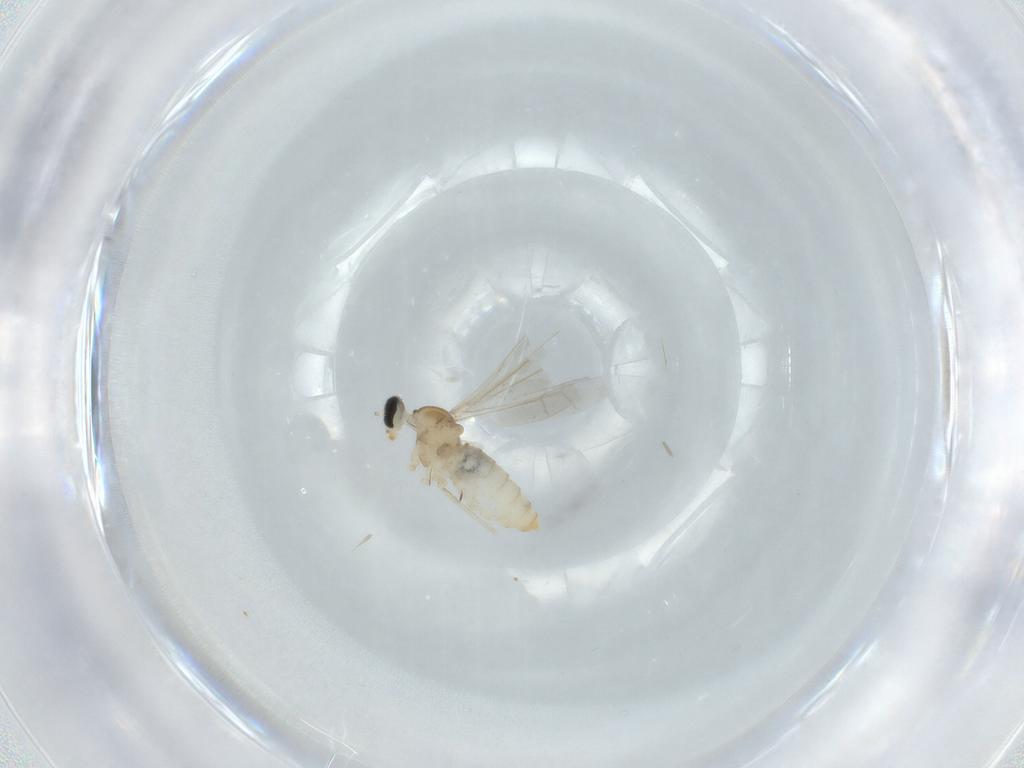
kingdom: Animalia
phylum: Arthropoda
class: Insecta
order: Diptera
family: Cecidomyiidae
